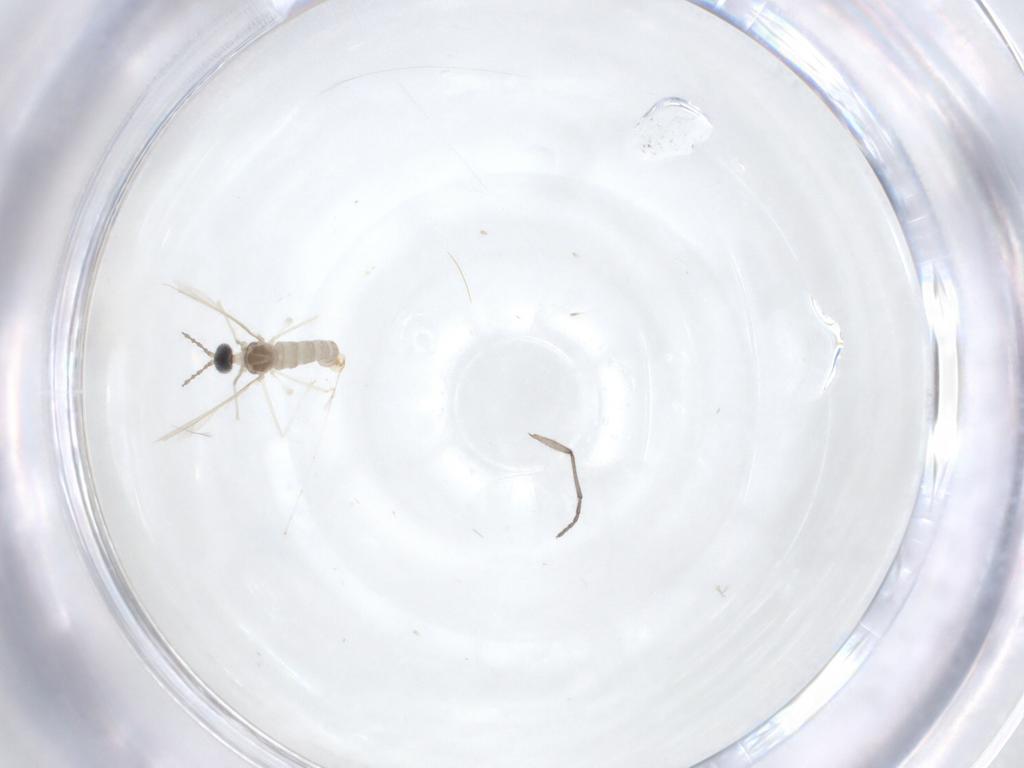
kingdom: Animalia
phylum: Arthropoda
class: Insecta
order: Diptera
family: Cecidomyiidae
